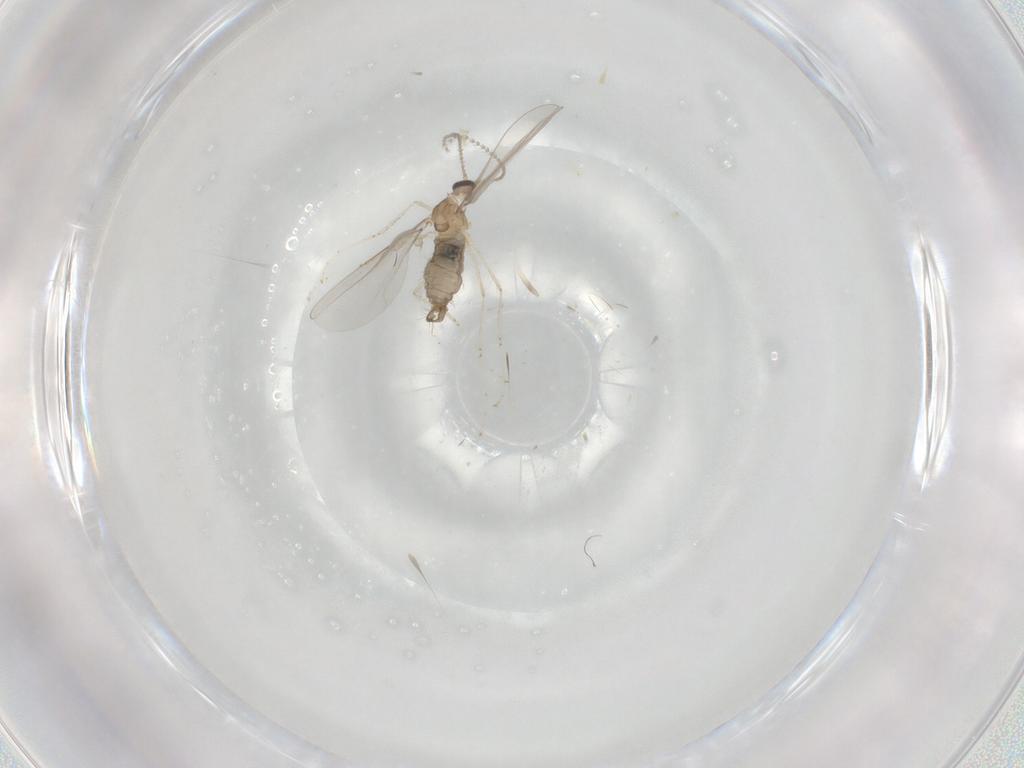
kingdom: Animalia
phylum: Arthropoda
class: Insecta
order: Diptera
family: Cecidomyiidae
